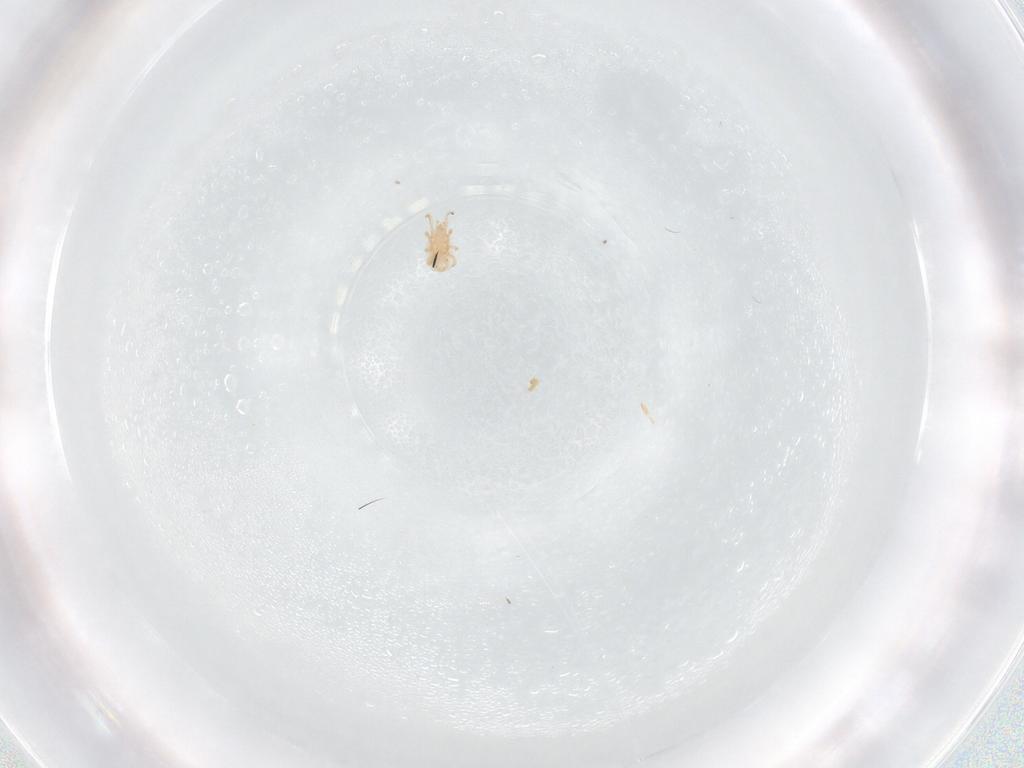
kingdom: Animalia
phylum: Arthropoda
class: Arachnida
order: Mesostigmata
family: Ascidae
